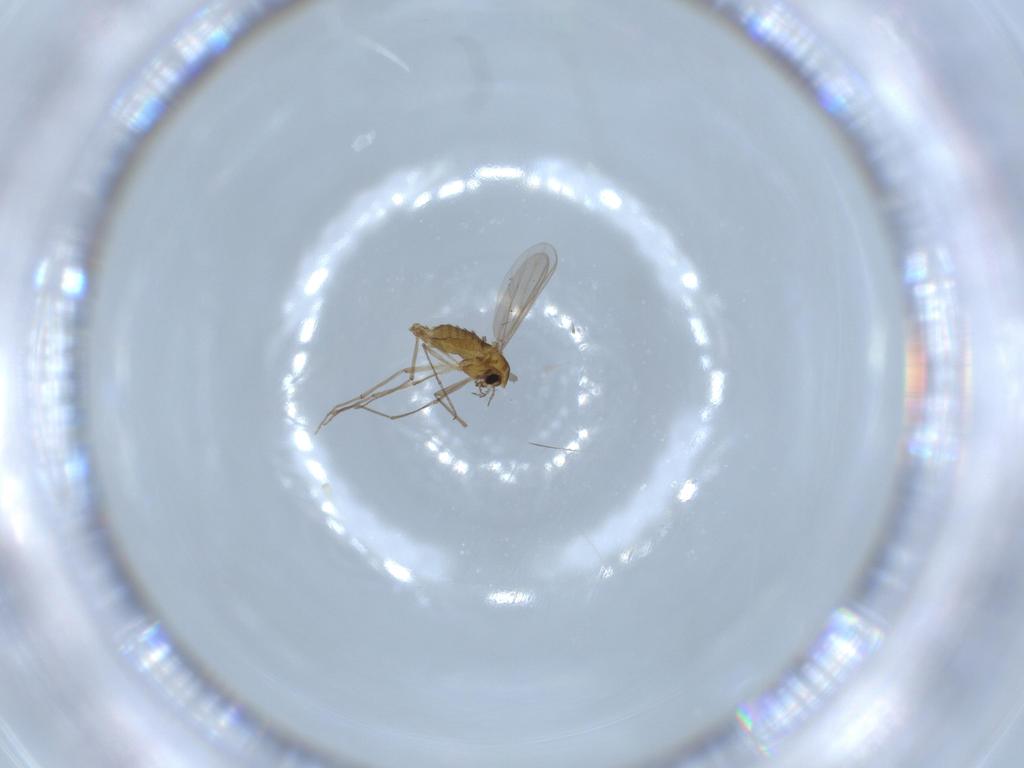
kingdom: Animalia
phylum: Arthropoda
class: Insecta
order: Diptera
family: Chironomidae
